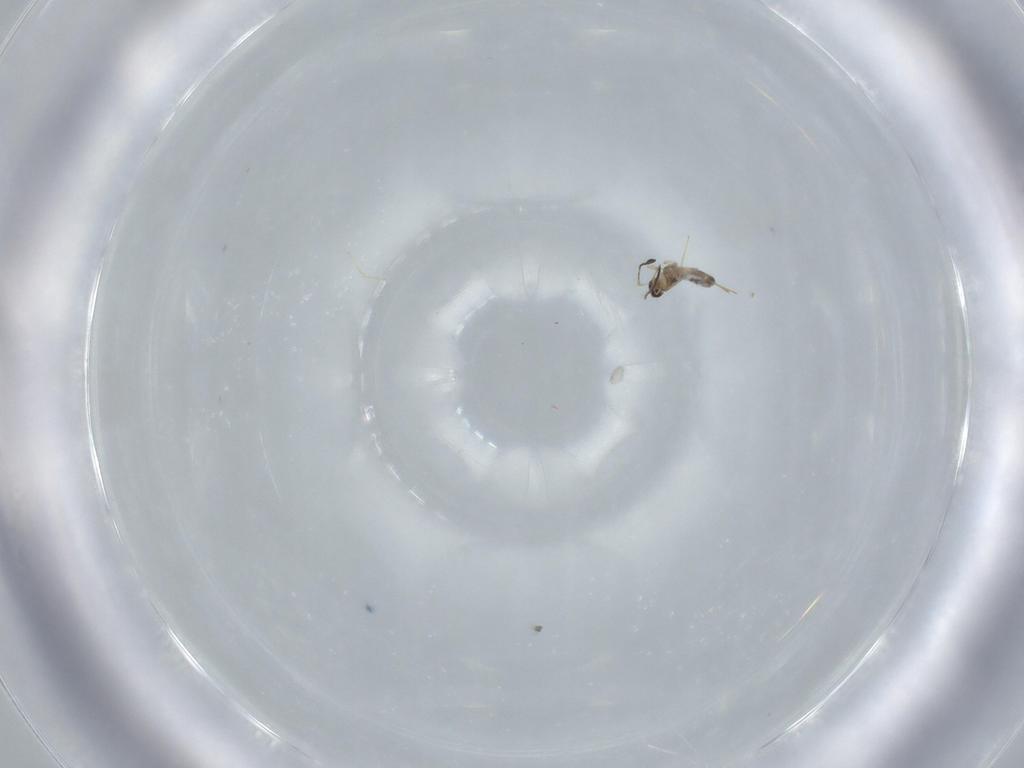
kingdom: Animalia
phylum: Arthropoda
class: Insecta
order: Hymenoptera
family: Mymaridae
